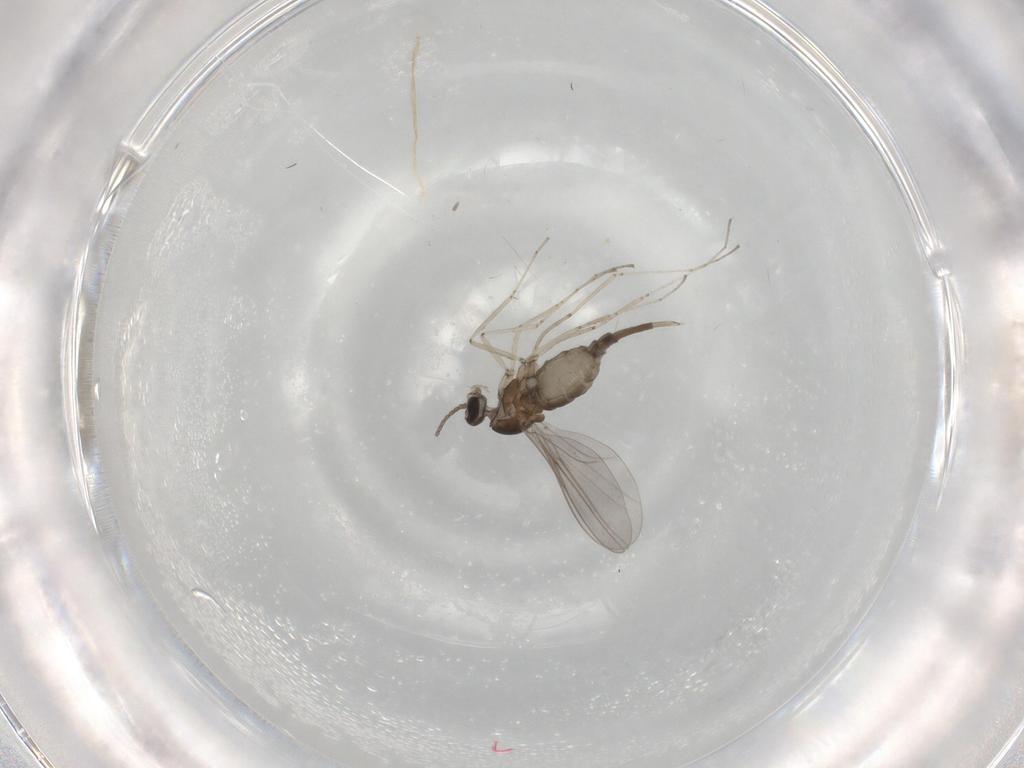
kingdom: Animalia
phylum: Arthropoda
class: Insecta
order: Diptera
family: Cecidomyiidae
